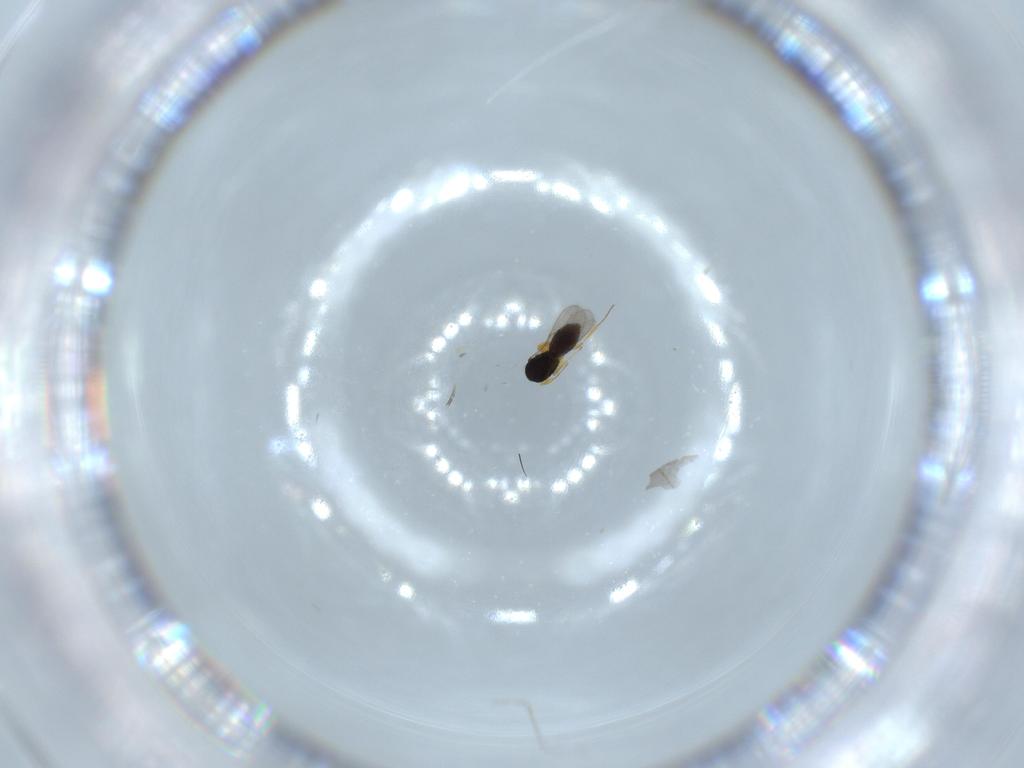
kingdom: Animalia
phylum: Arthropoda
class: Insecta
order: Hymenoptera
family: Scelionidae
